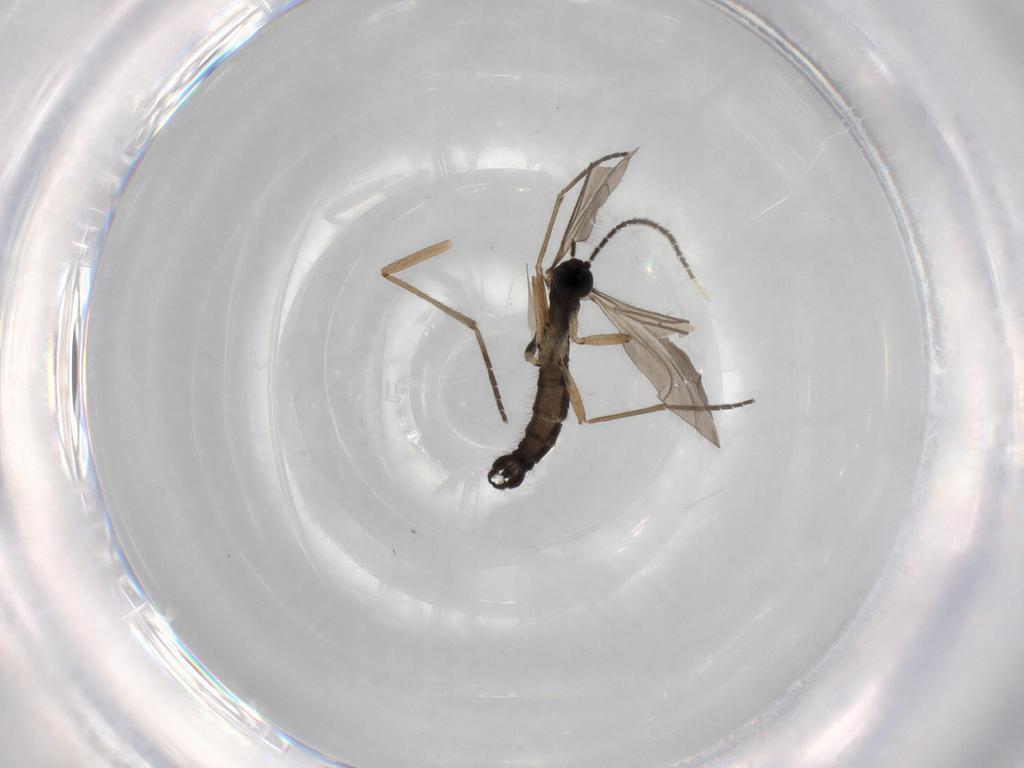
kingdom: Animalia
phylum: Arthropoda
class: Insecta
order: Diptera
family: Sciaridae
